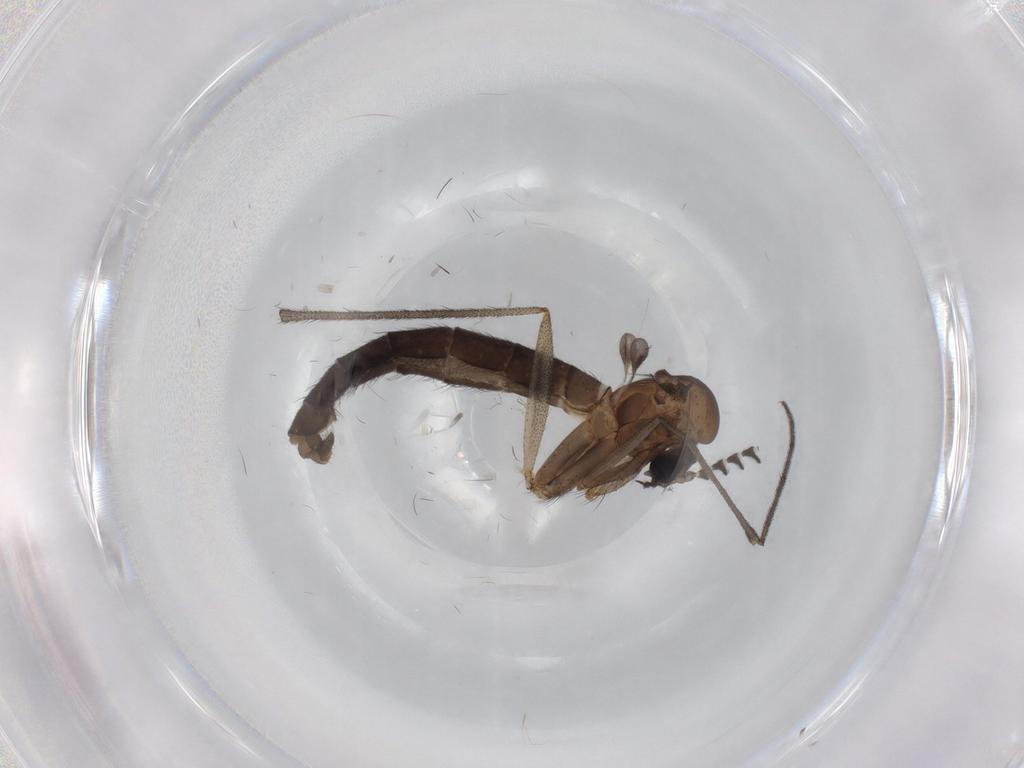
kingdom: Animalia
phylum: Arthropoda
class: Insecta
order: Diptera
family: Ditomyiidae
